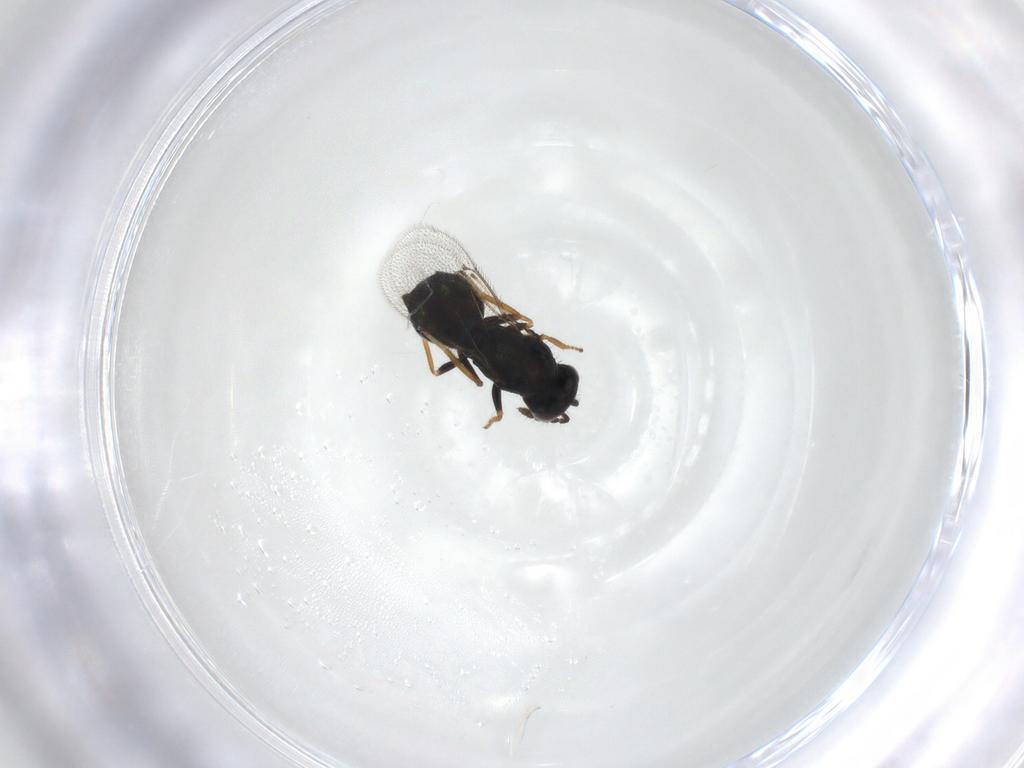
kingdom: Animalia
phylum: Arthropoda
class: Insecta
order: Hymenoptera
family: Eulophidae
